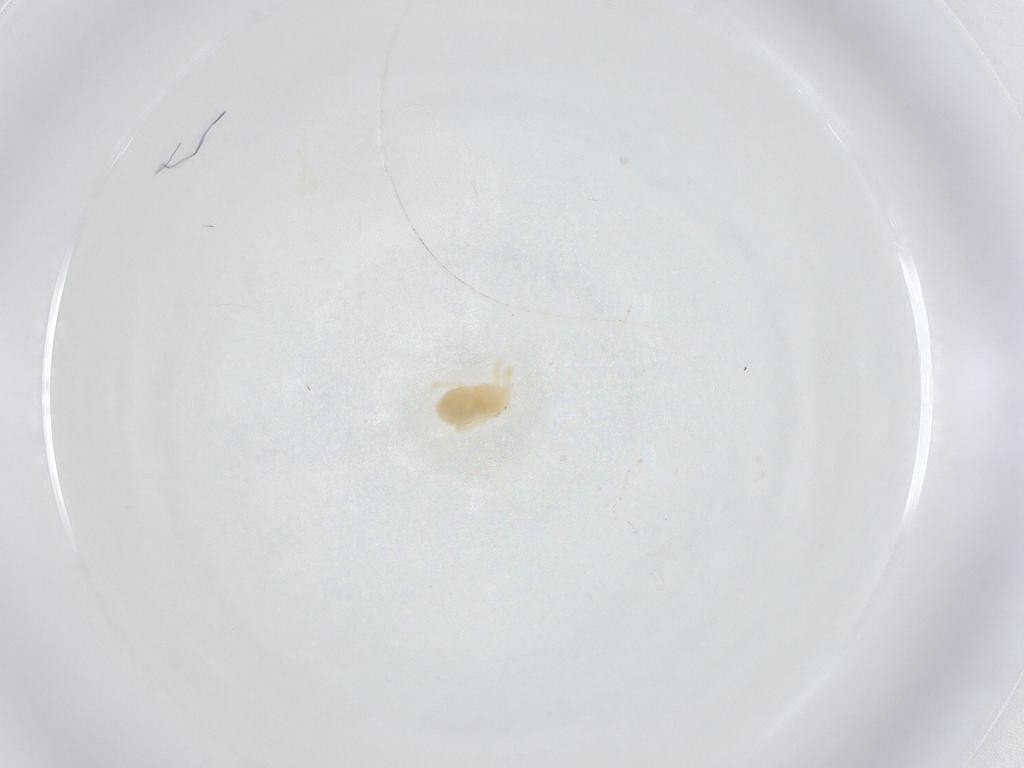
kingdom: Animalia
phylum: Arthropoda
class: Arachnida
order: Trombidiformes
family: Anystidae
